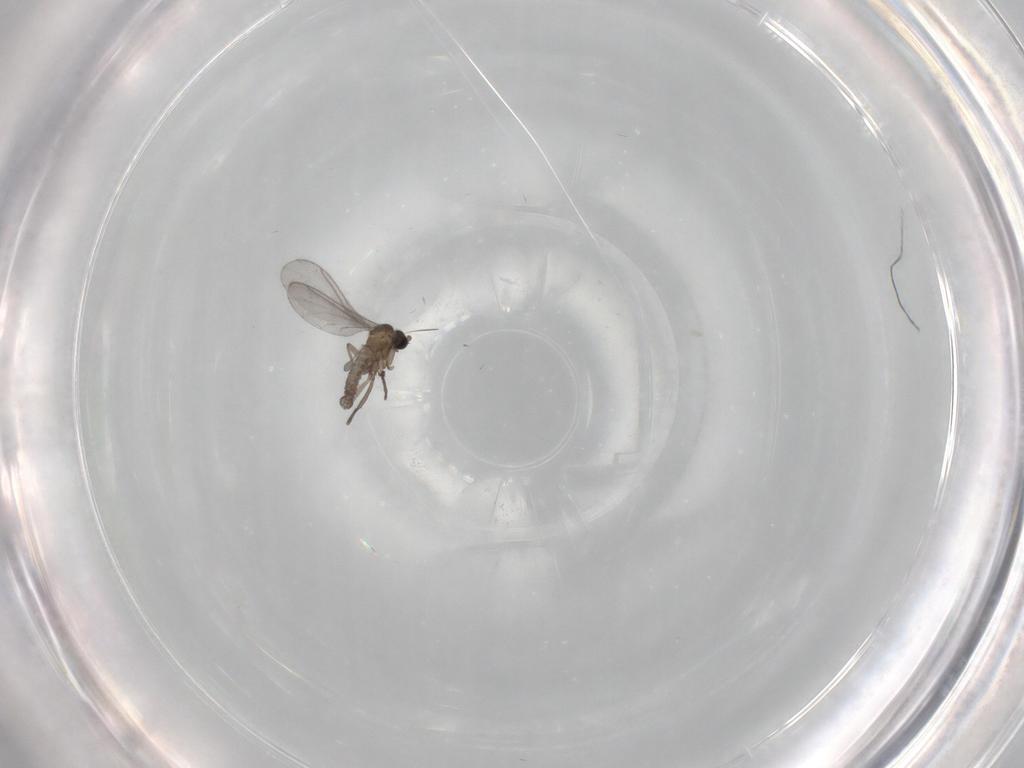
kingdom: Animalia
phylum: Arthropoda
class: Insecta
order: Diptera
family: Sciaridae
